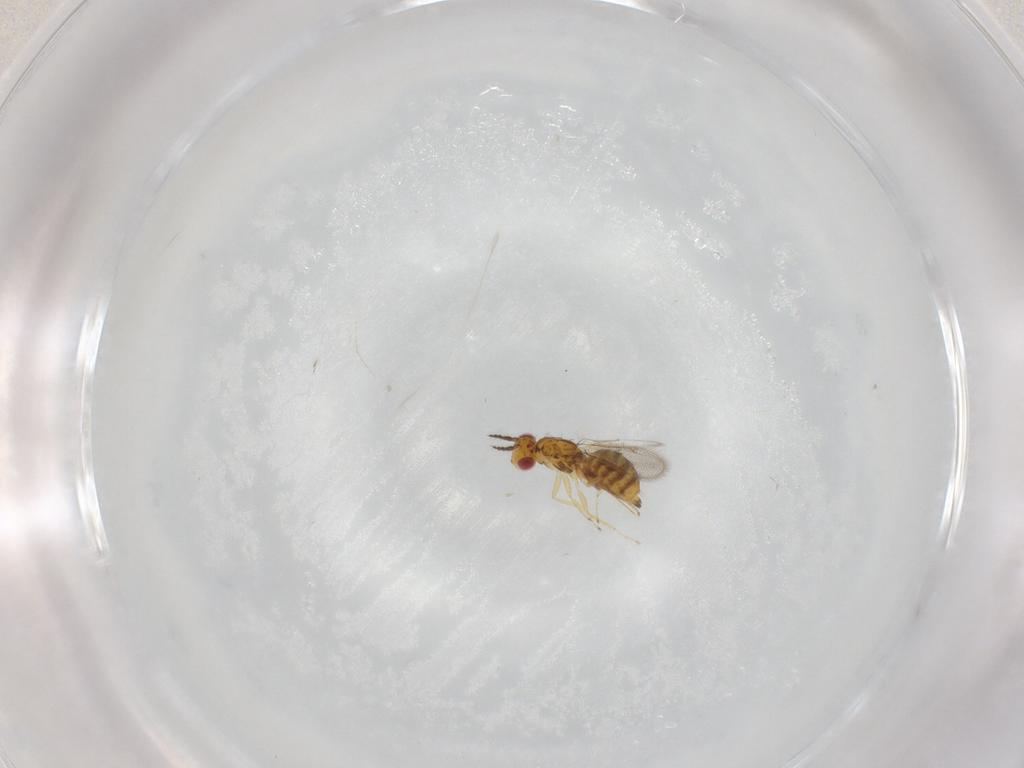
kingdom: Animalia
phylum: Arthropoda
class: Insecta
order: Hymenoptera
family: Eulophidae
